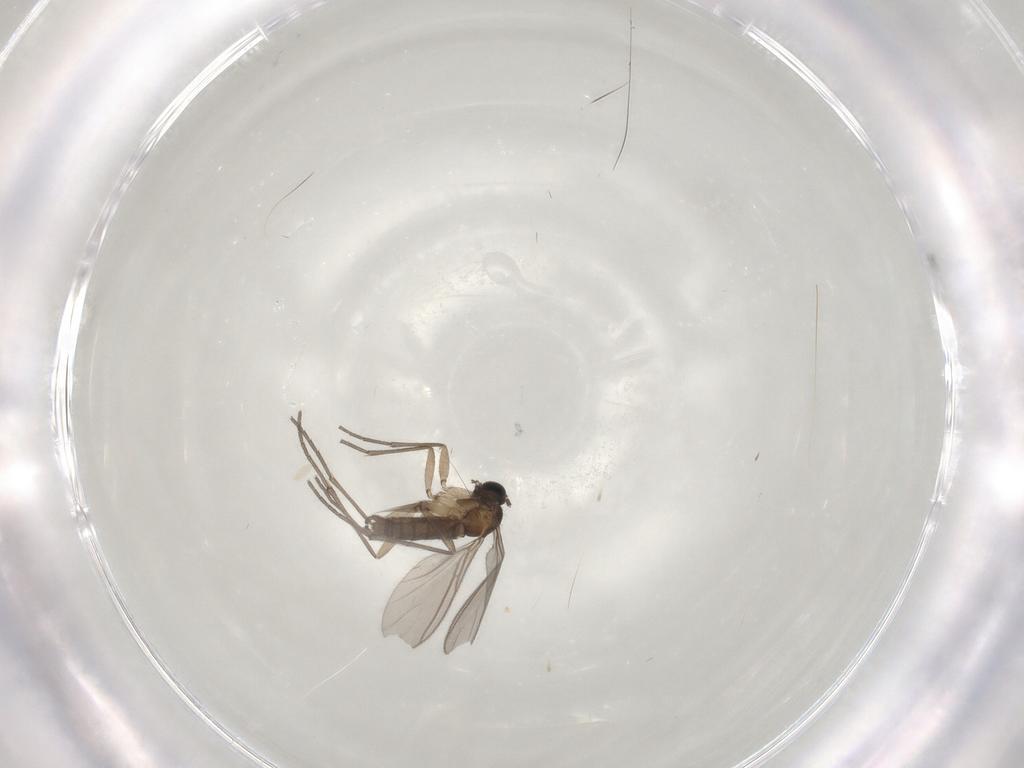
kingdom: Animalia
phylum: Arthropoda
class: Insecta
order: Diptera
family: Sciaridae
